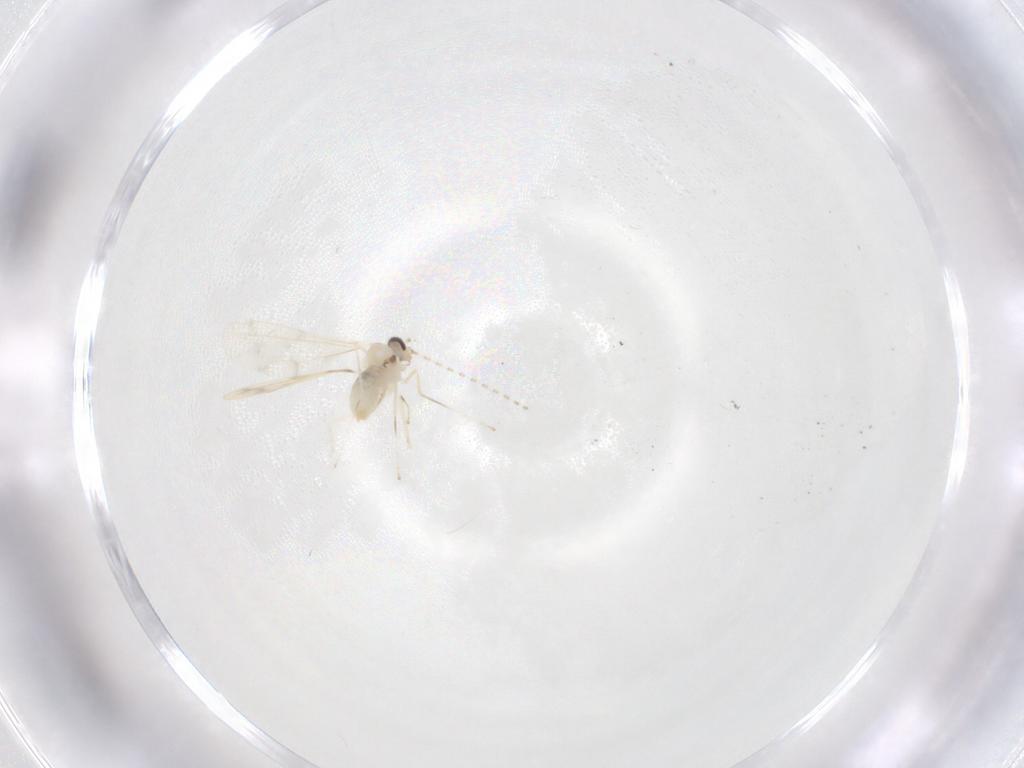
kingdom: Animalia
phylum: Arthropoda
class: Insecta
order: Diptera
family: Cecidomyiidae
